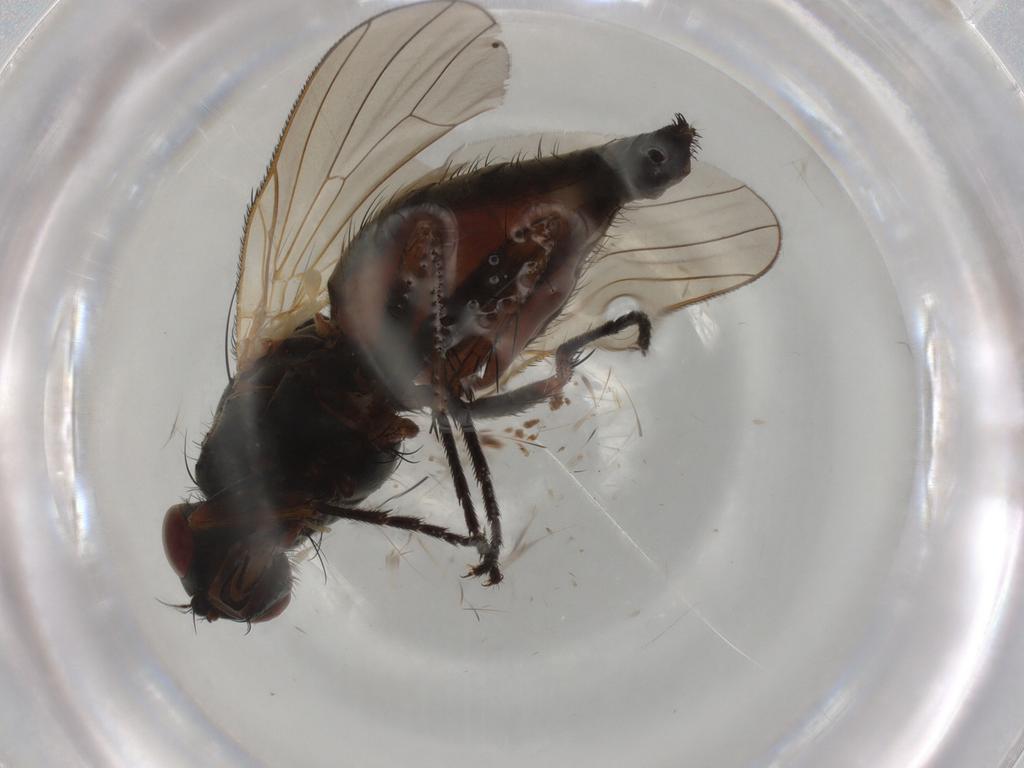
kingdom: Animalia
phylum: Arthropoda
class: Insecta
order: Diptera
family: Anthomyiidae
